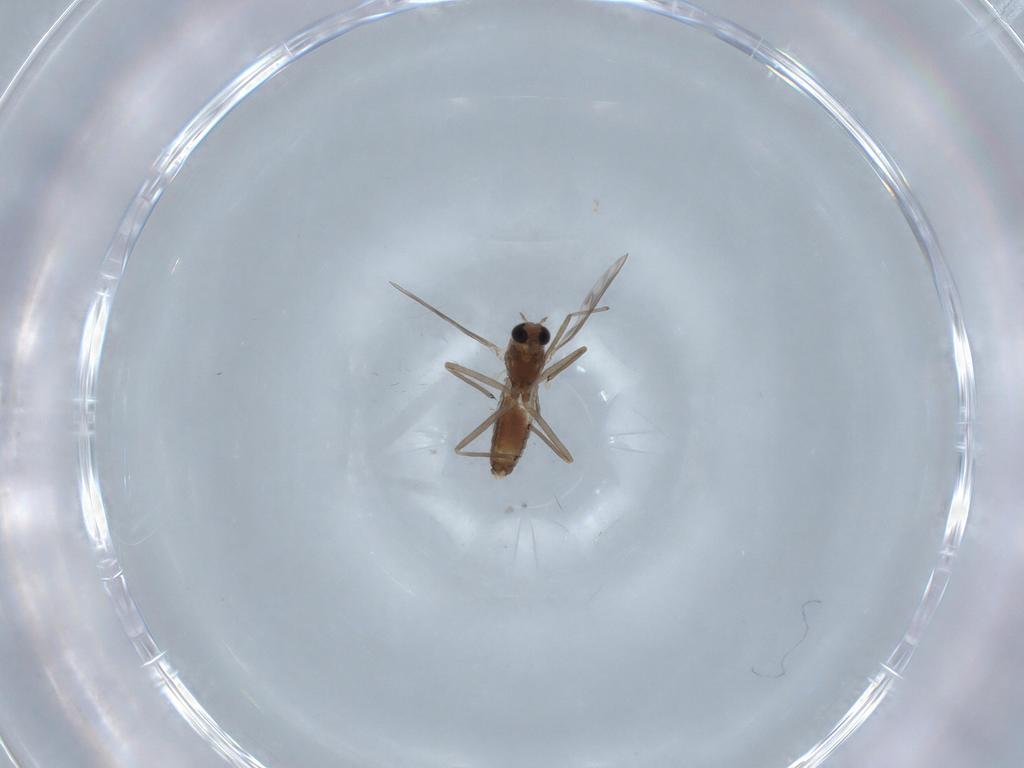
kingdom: Animalia
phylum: Arthropoda
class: Insecta
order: Diptera
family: Chironomidae
